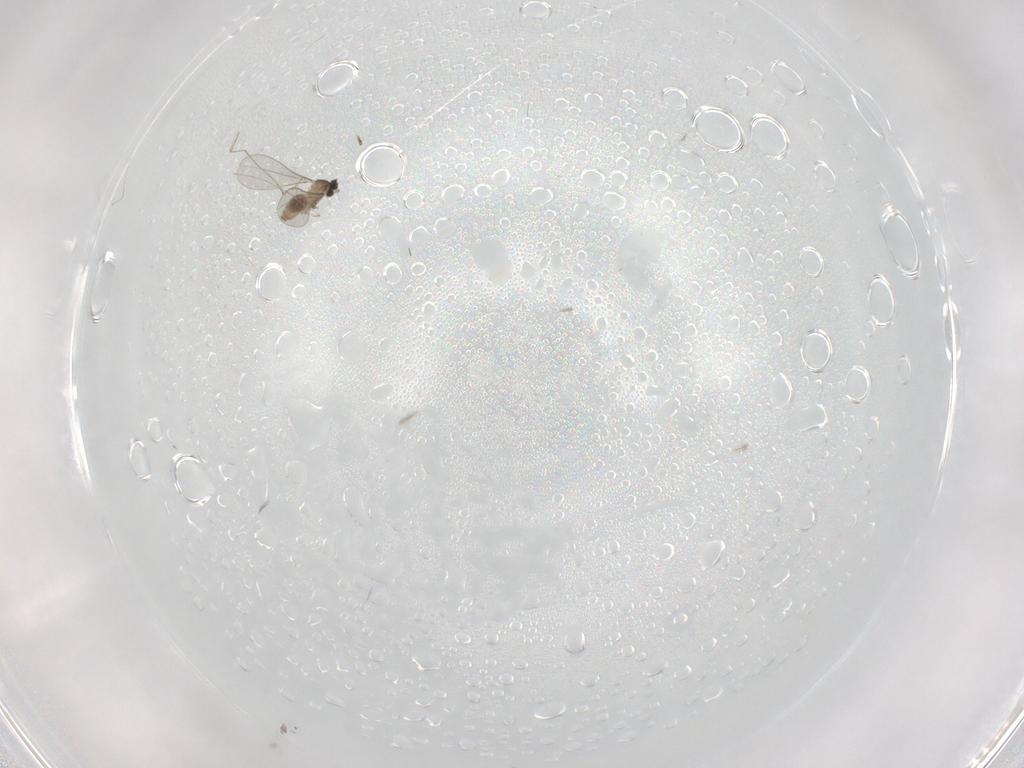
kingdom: Animalia
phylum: Arthropoda
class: Insecta
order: Diptera
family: Cecidomyiidae
